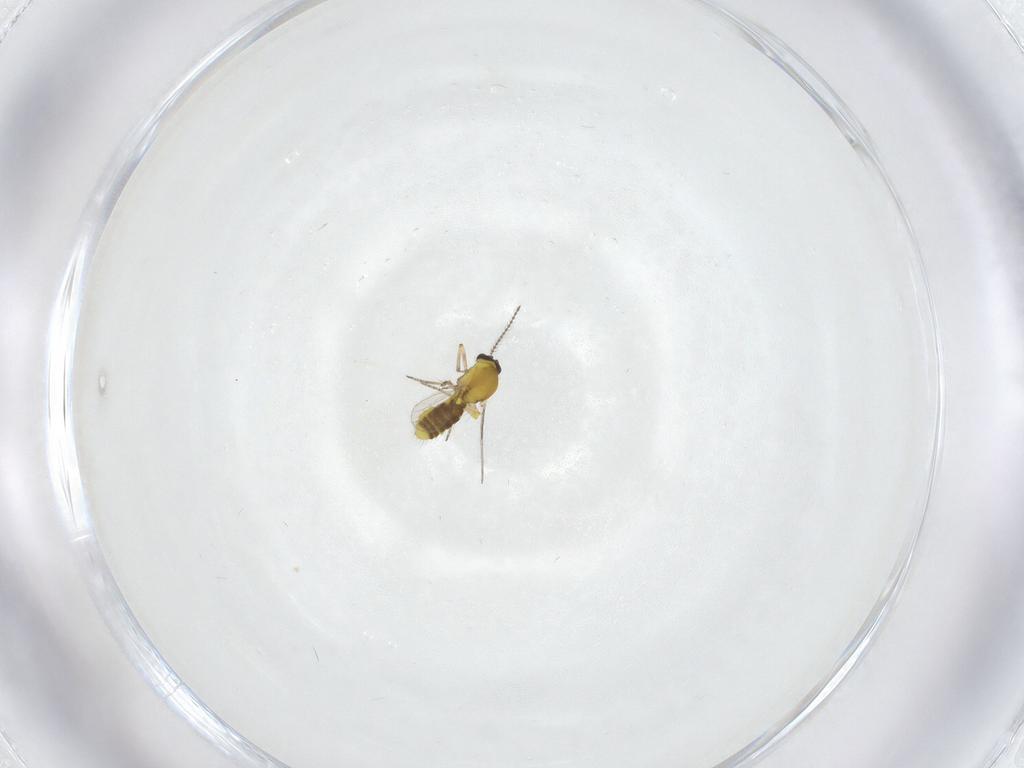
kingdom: Animalia
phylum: Arthropoda
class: Insecta
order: Diptera
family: Ceratopogonidae
